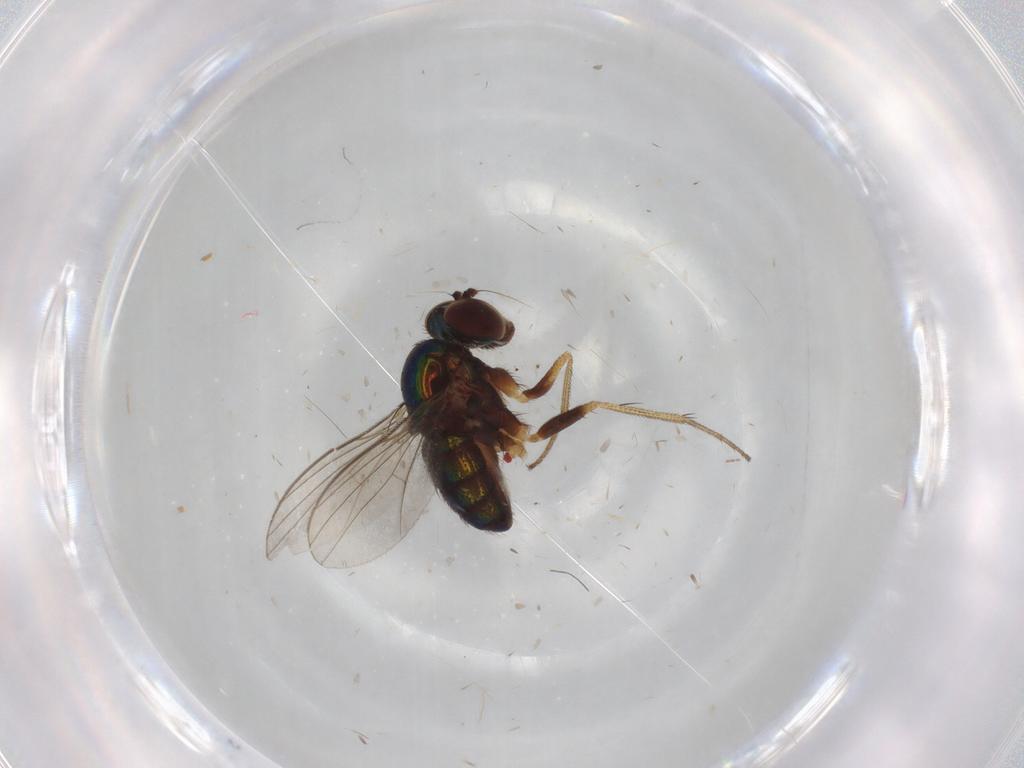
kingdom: Animalia
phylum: Arthropoda
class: Insecta
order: Diptera
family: Chironomidae
